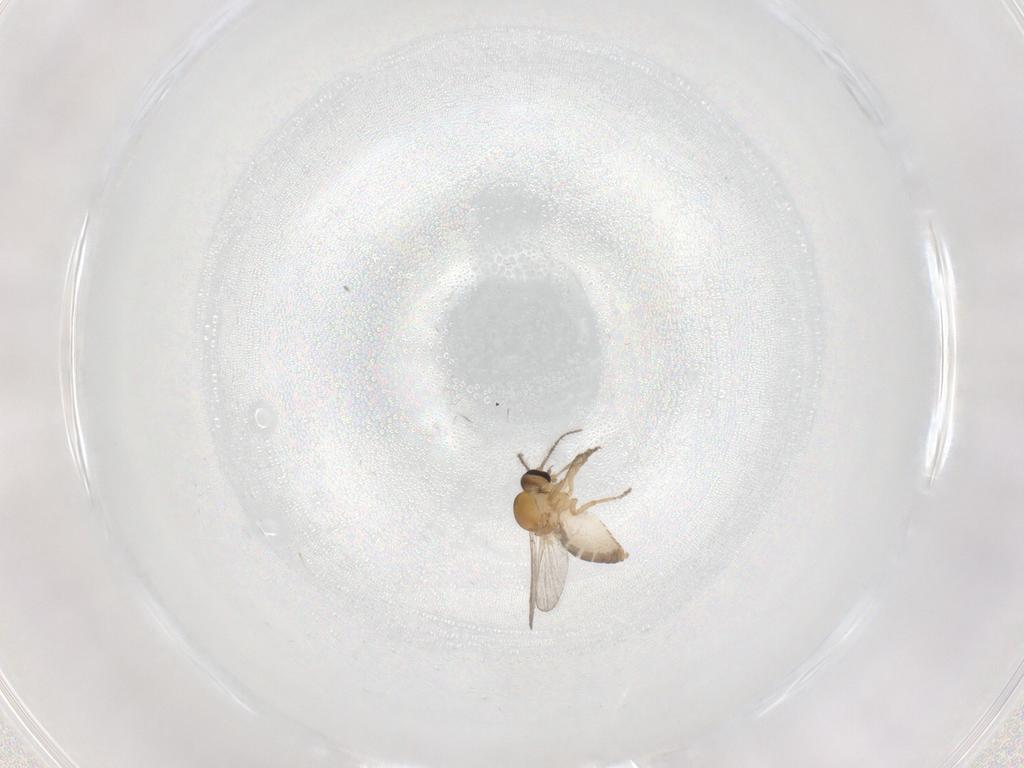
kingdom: Animalia
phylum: Arthropoda
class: Insecta
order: Diptera
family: Ceratopogonidae
